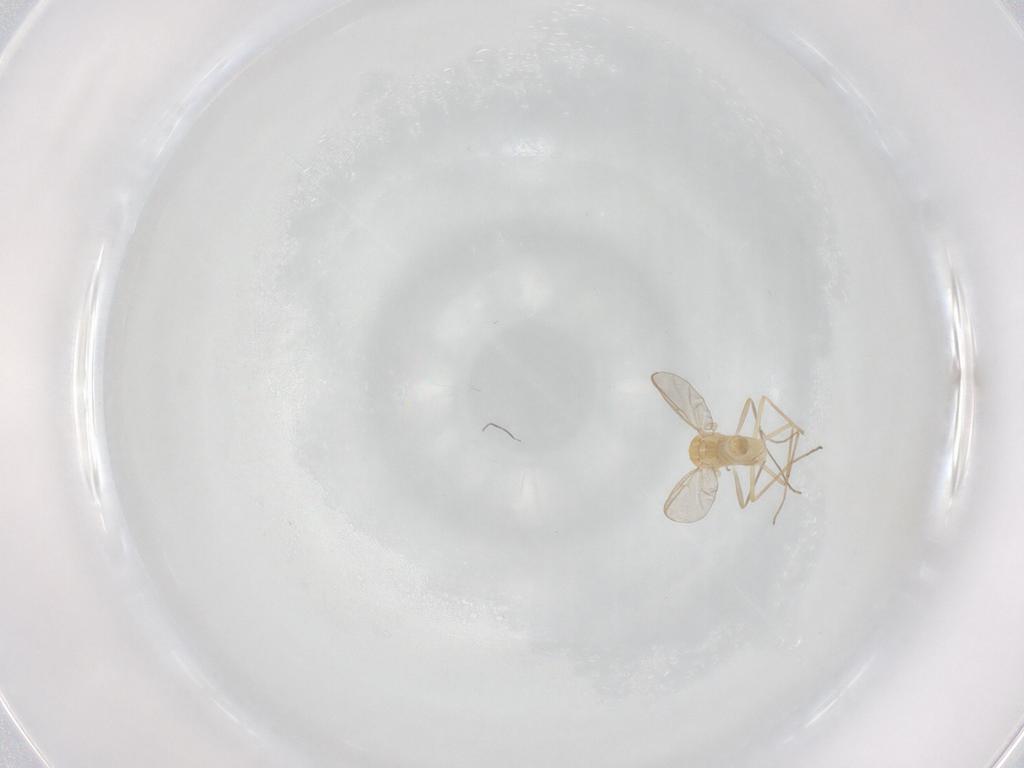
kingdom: Animalia
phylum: Arthropoda
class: Insecta
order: Diptera
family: Chironomidae
